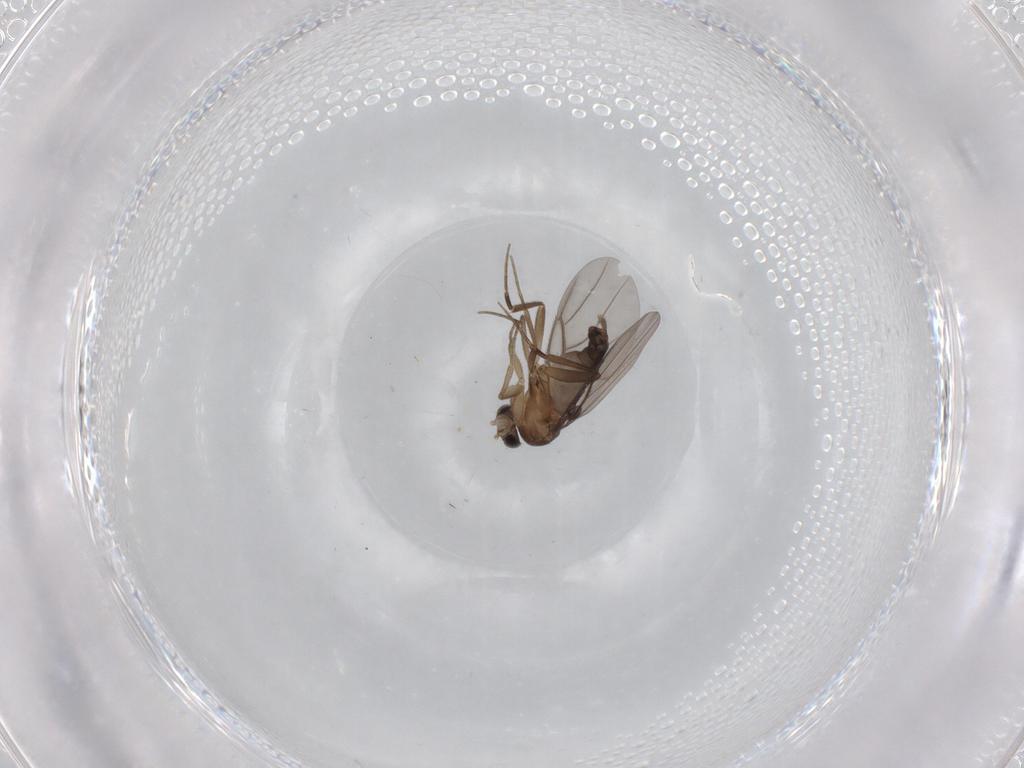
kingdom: Animalia
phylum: Arthropoda
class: Insecta
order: Diptera
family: Phoridae
